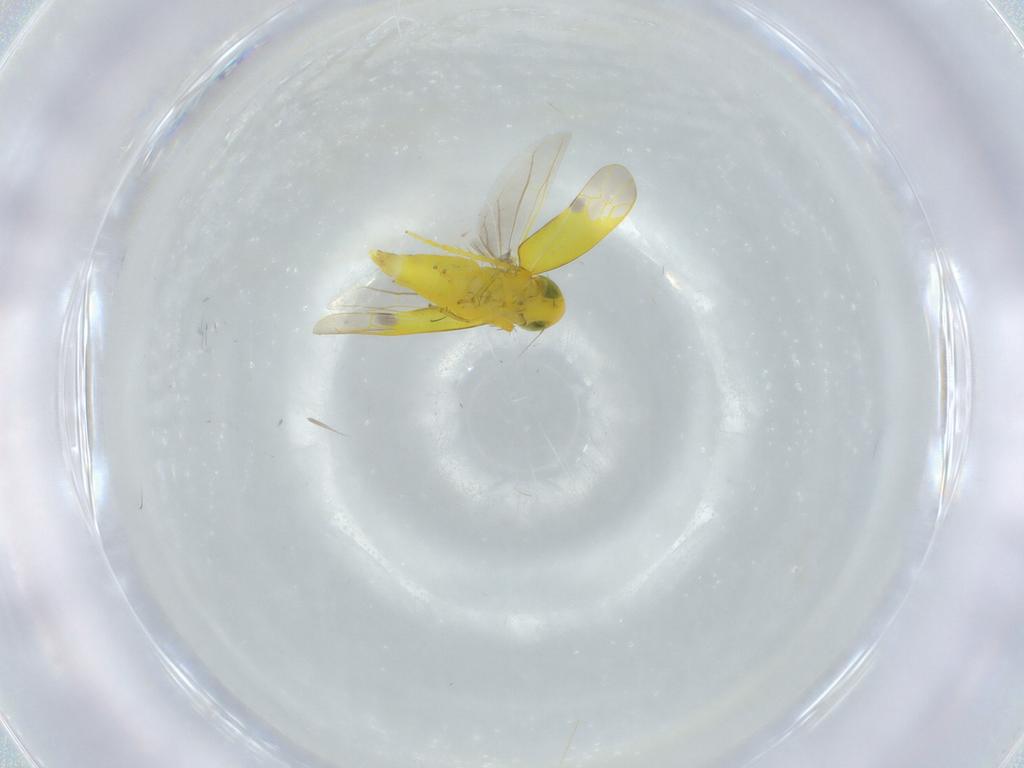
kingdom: Animalia
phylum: Arthropoda
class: Insecta
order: Hemiptera
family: Cicadellidae
